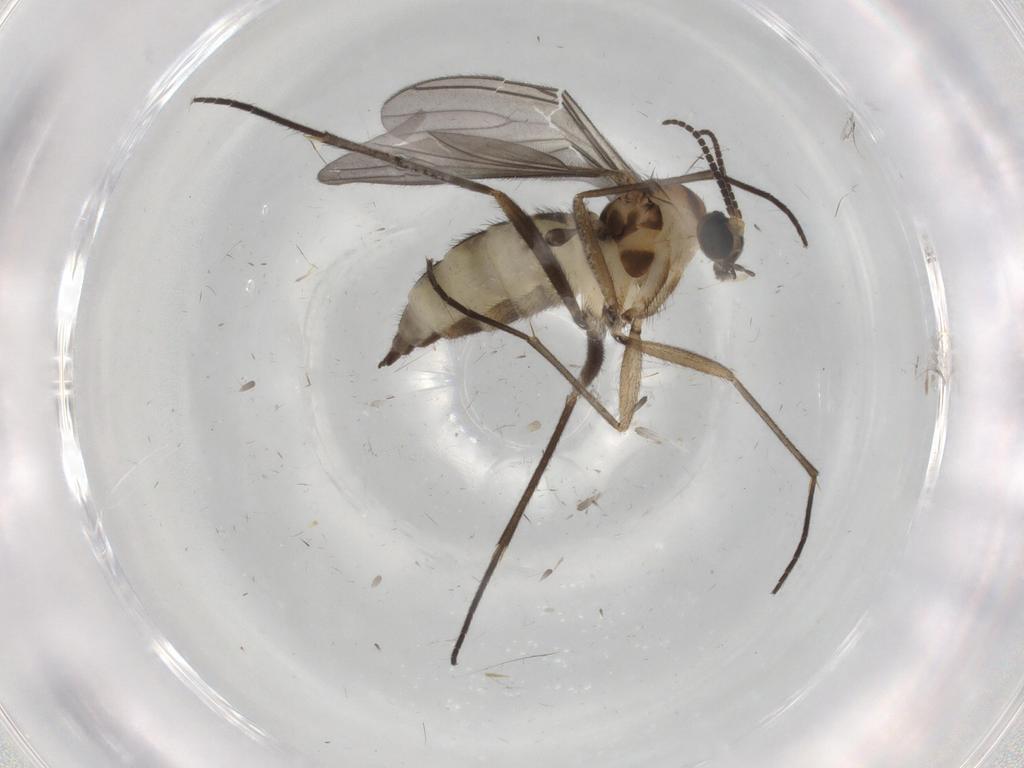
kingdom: Animalia
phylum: Arthropoda
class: Insecta
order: Diptera
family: Sciaridae
